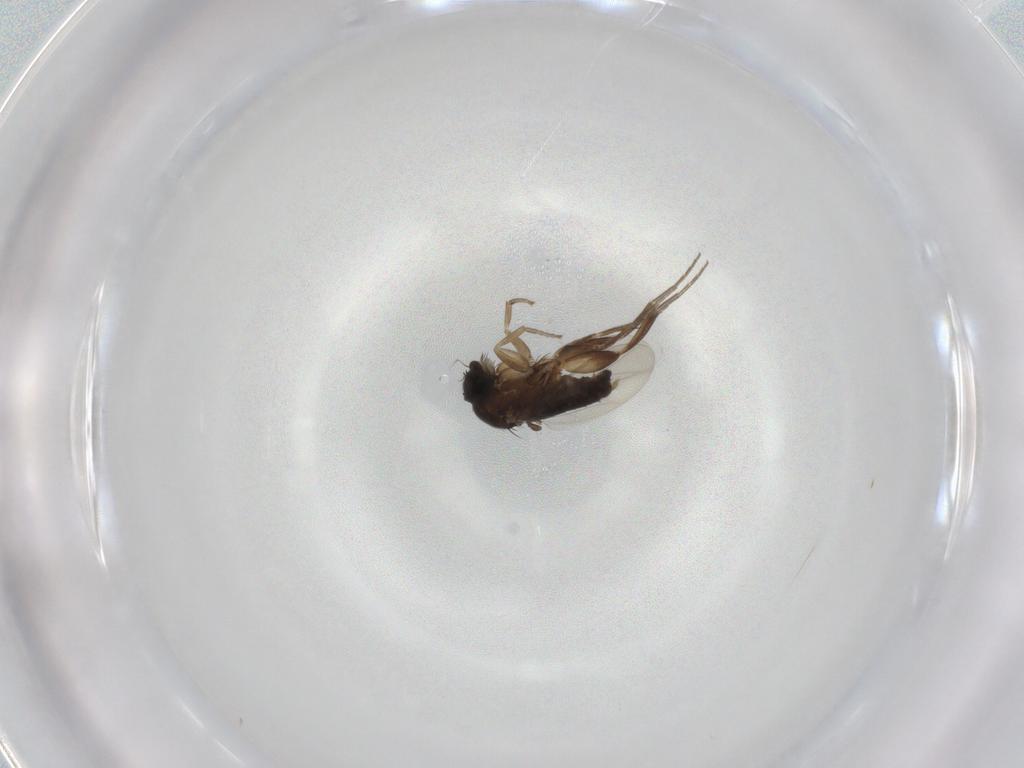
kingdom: Animalia
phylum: Arthropoda
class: Insecta
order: Diptera
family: Phoridae
